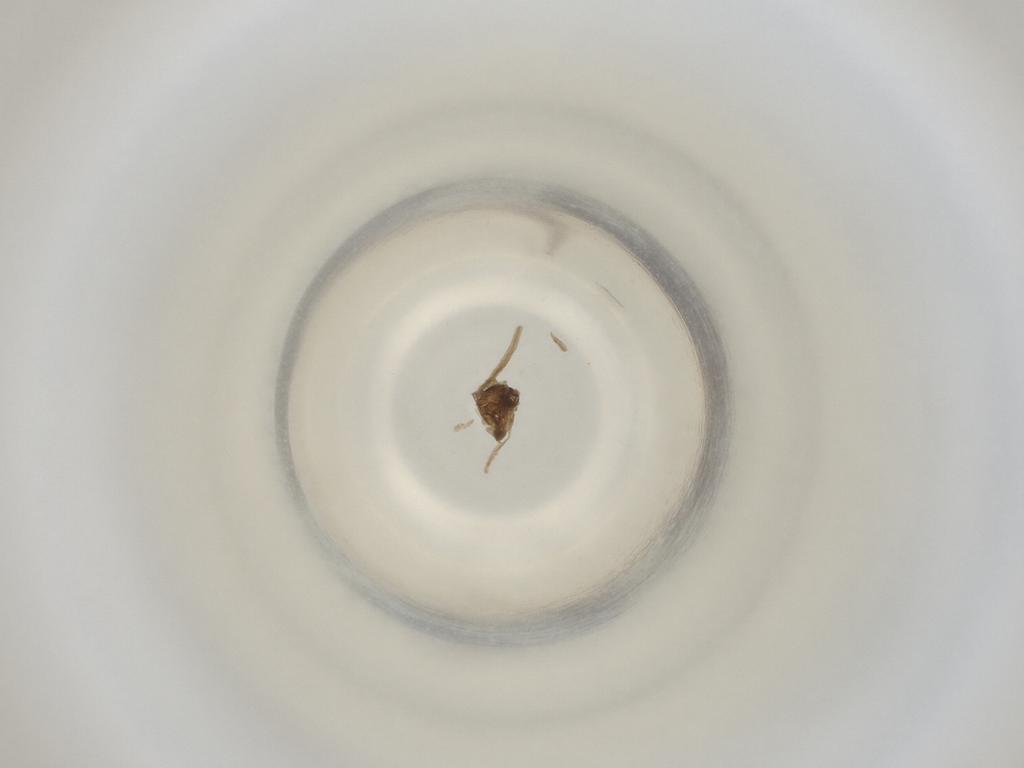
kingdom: Animalia
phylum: Arthropoda
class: Insecta
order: Diptera
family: Cecidomyiidae
